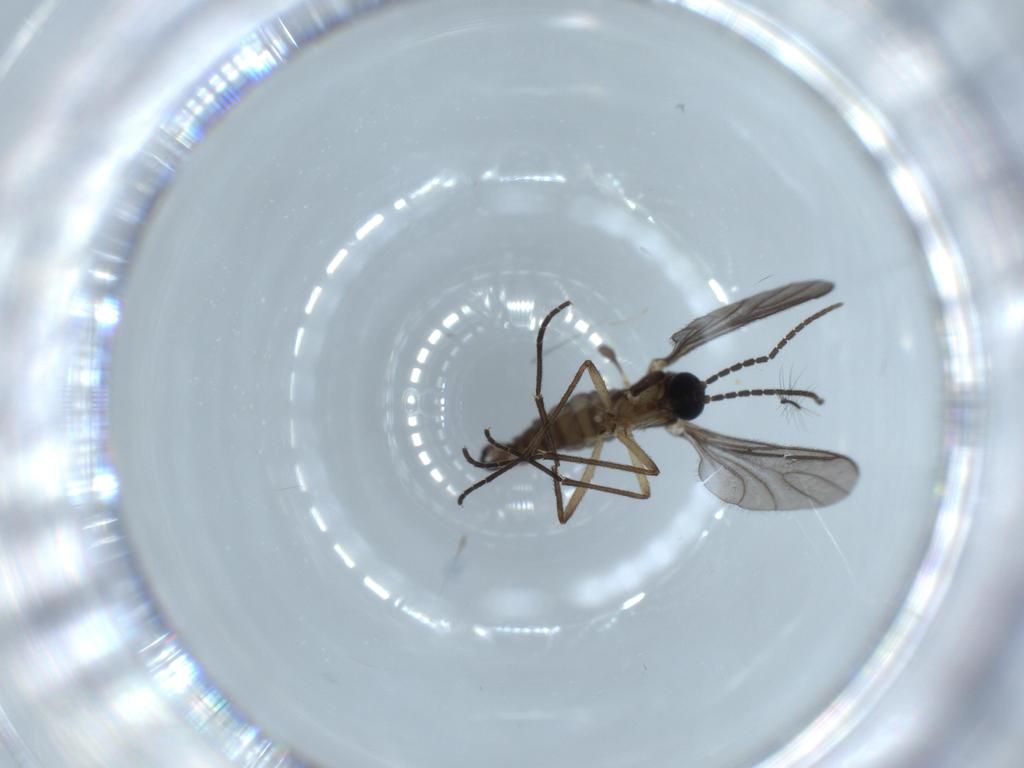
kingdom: Animalia
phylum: Arthropoda
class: Insecta
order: Diptera
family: Sciaridae
